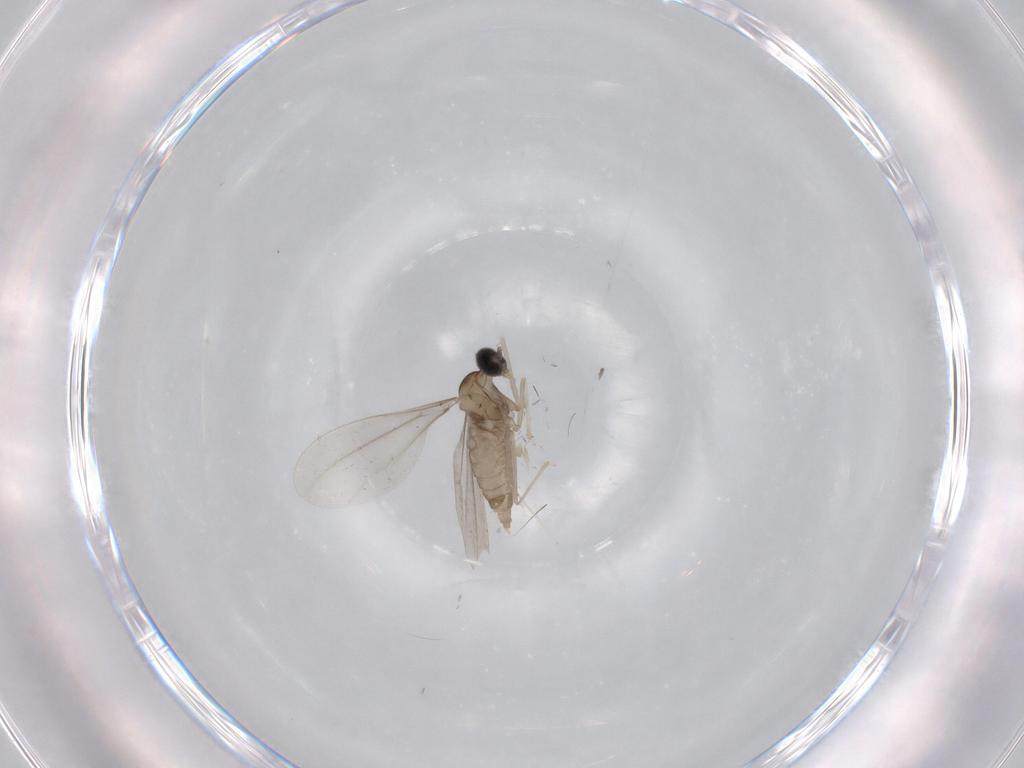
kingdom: Animalia
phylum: Arthropoda
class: Insecta
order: Diptera
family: Cecidomyiidae
